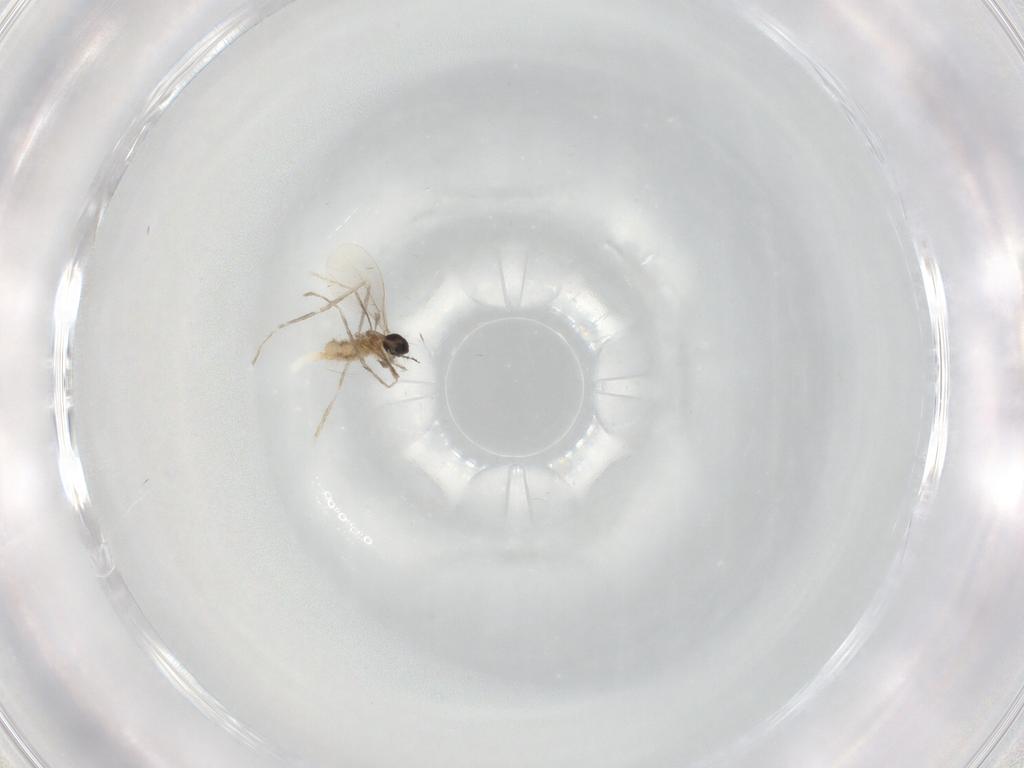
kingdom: Animalia
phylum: Arthropoda
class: Insecta
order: Diptera
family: Cecidomyiidae
